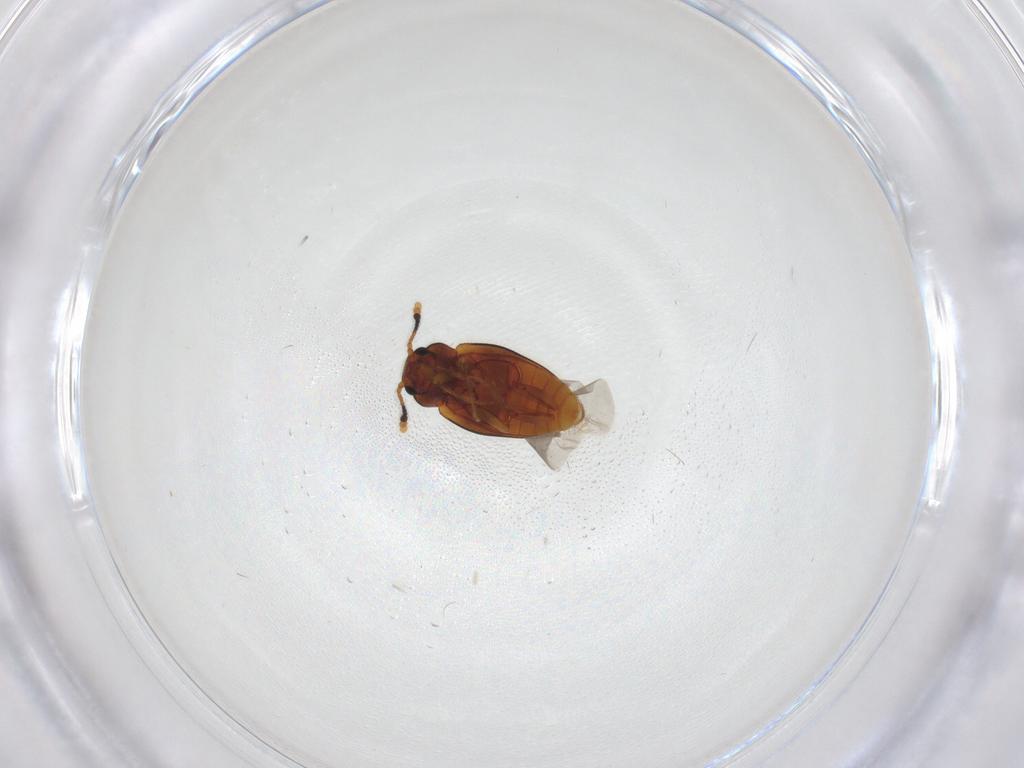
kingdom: Animalia
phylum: Arthropoda
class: Insecta
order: Coleoptera
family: Erotylidae
